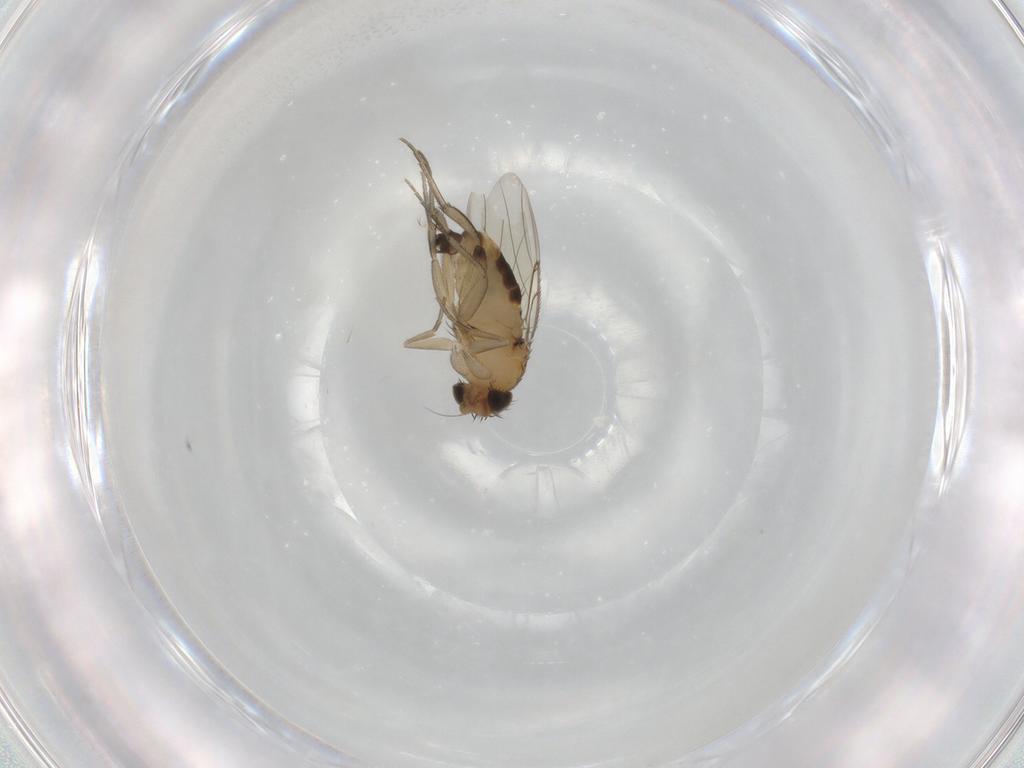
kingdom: Animalia
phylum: Arthropoda
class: Insecta
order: Diptera
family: Phoridae
